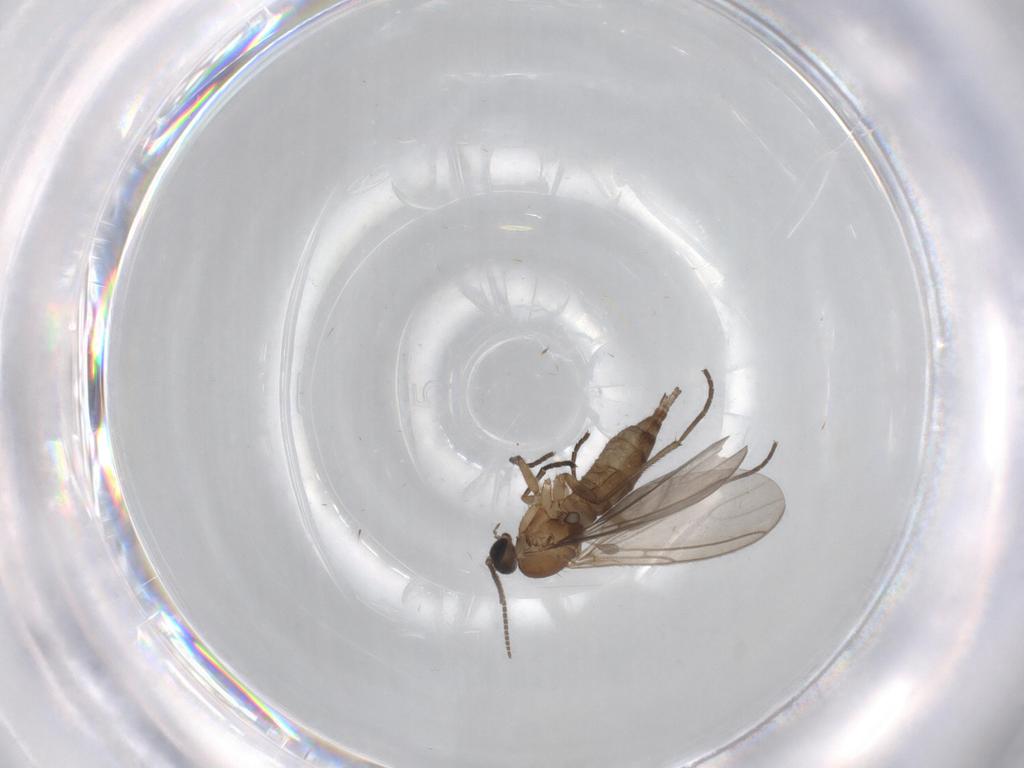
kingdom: Animalia
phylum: Arthropoda
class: Insecta
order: Diptera
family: Sciaridae
